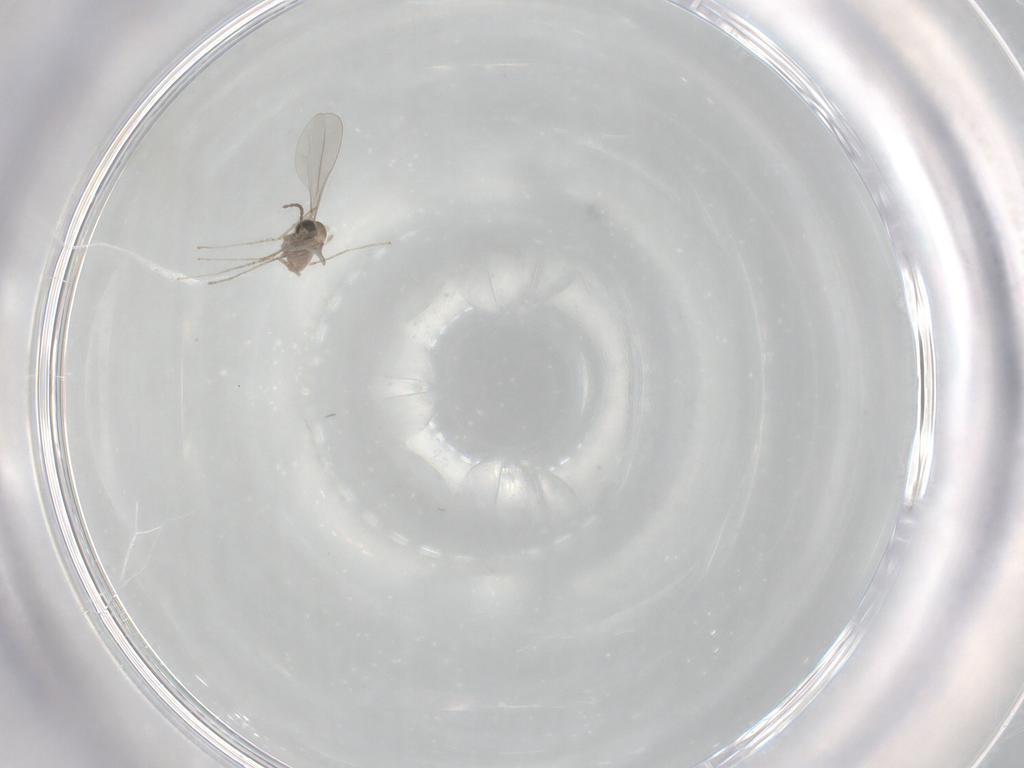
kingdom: Animalia
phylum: Arthropoda
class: Insecta
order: Diptera
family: Cecidomyiidae
